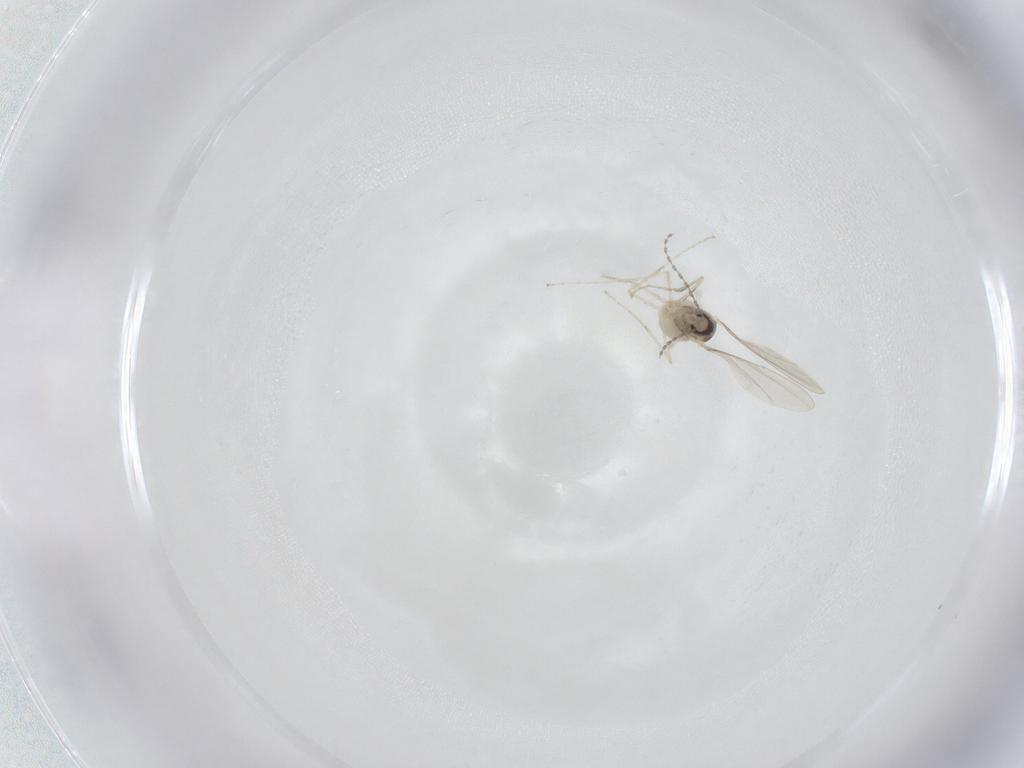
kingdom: Animalia
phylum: Arthropoda
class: Insecta
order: Diptera
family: Cecidomyiidae
